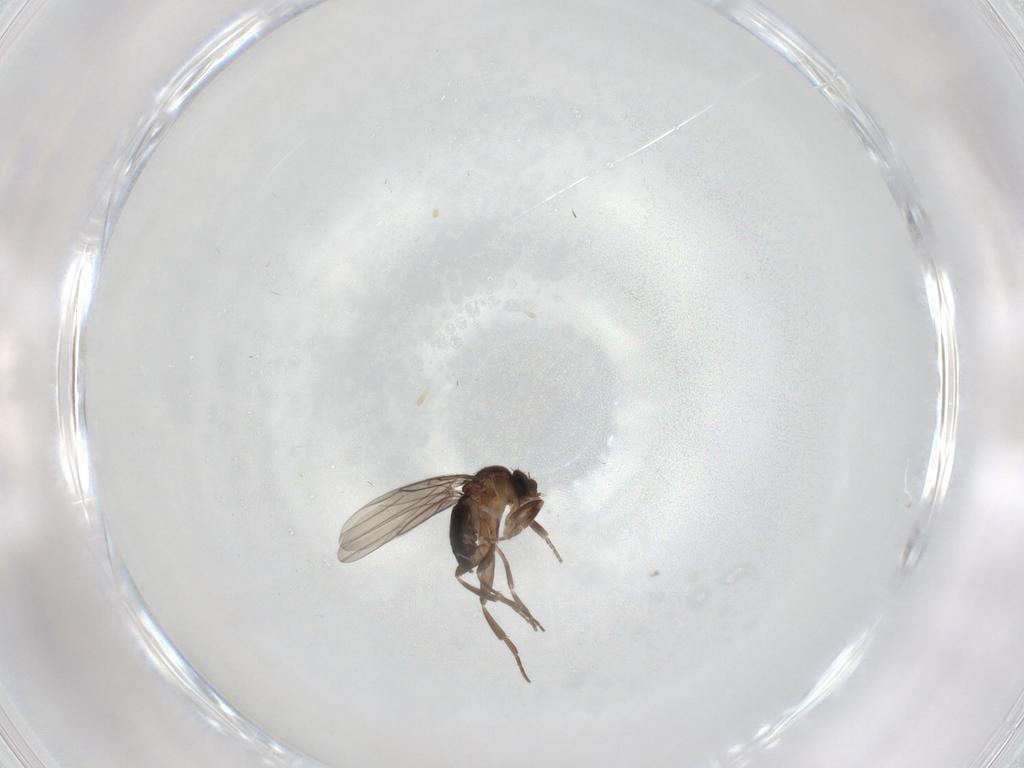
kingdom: Animalia
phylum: Arthropoda
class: Insecta
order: Diptera
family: Phoridae
